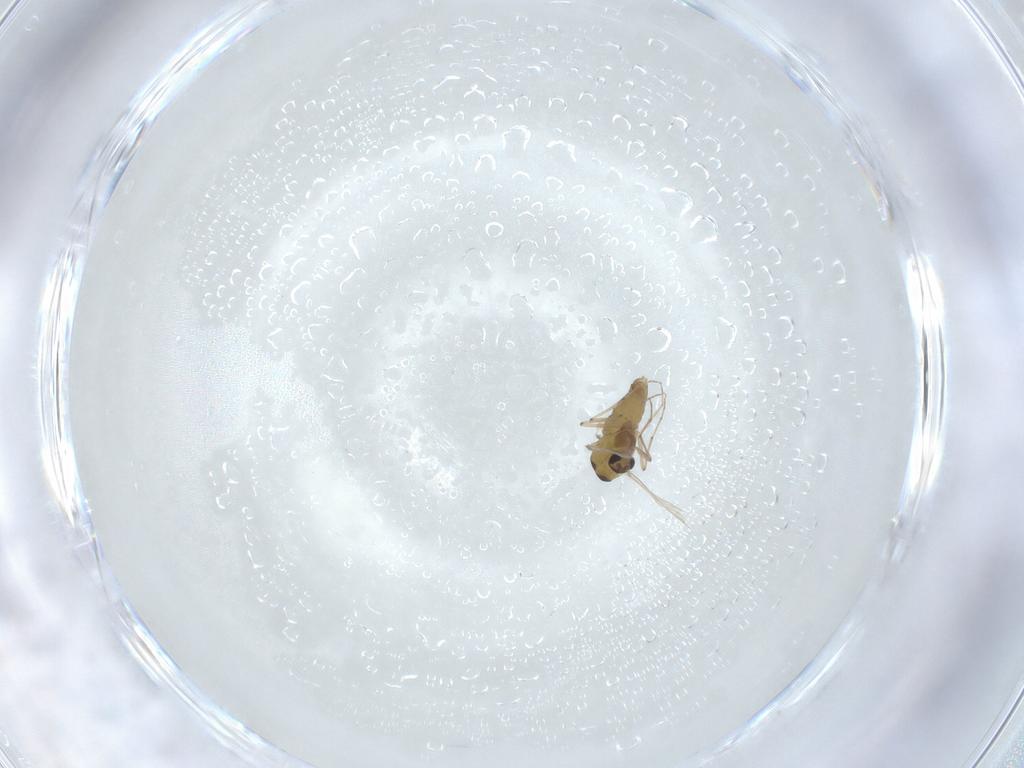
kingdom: Animalia
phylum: Arthropoda
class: Insecta
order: Diptera
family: Chironomidae
